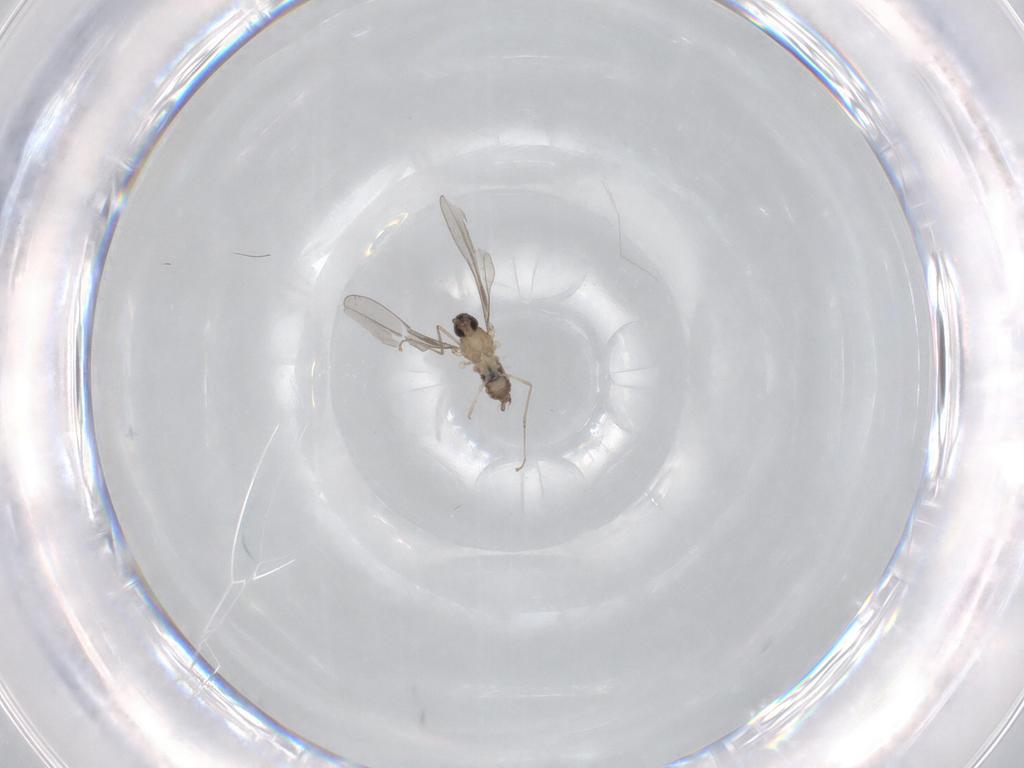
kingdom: Animalia
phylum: Arthropoda
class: Insecta
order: Diptera
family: Cecidomyiidae
